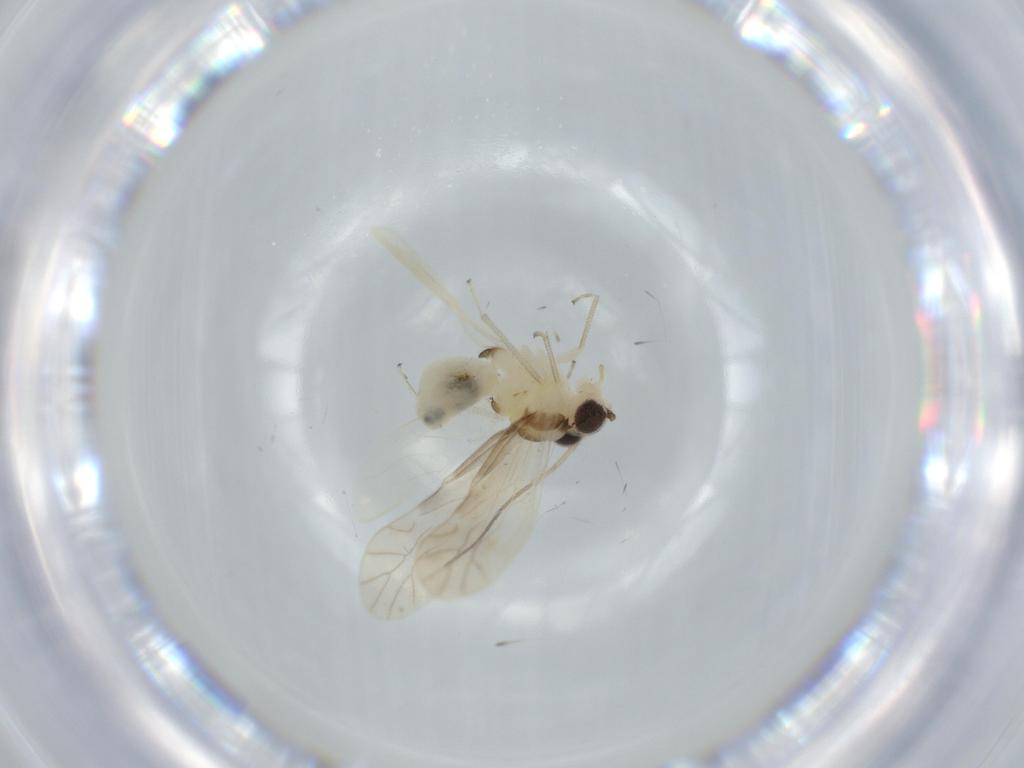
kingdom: Animalia
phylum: Arthropoda
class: Insecta
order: Psocodea
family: Caeciliusidae
